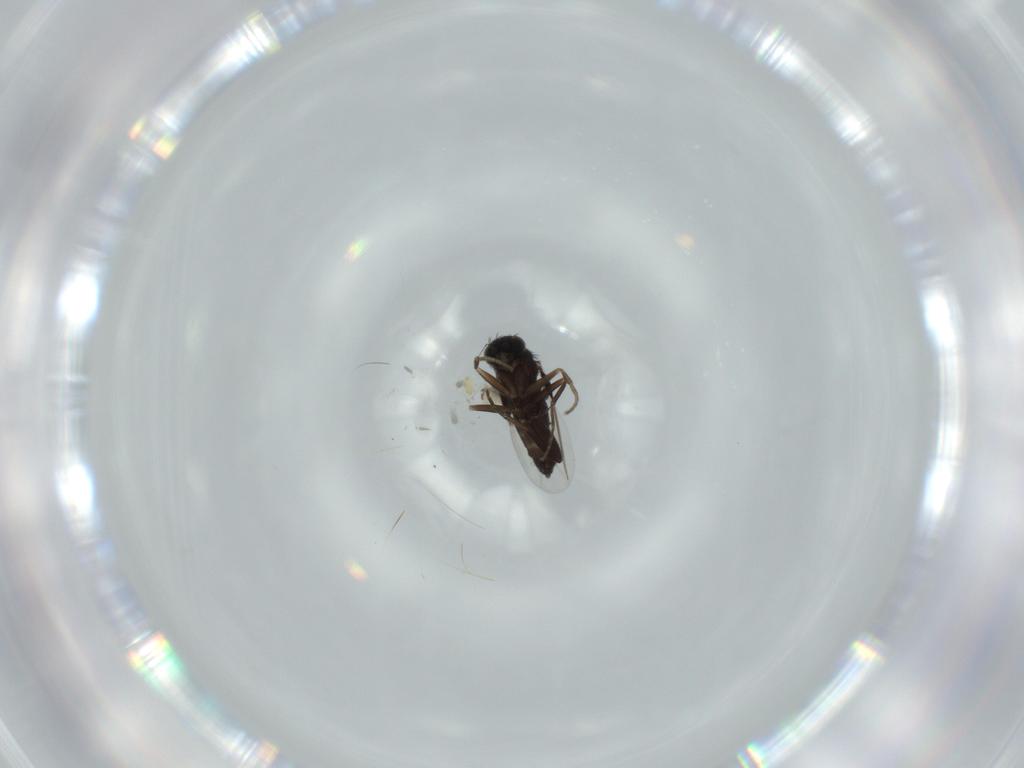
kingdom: Animalia
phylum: Arthropoda
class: Insecta
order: Diptera
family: Phoridae
